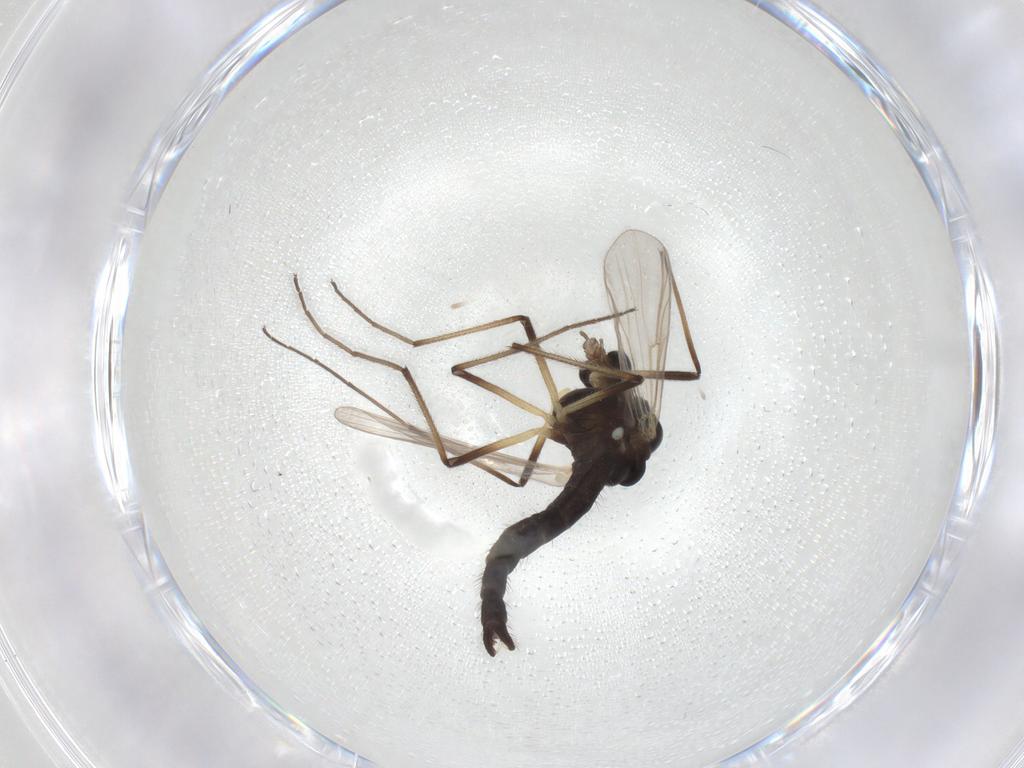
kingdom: Animalia
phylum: Arthropoda
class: Insecta
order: Diptera
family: Chironomidae
